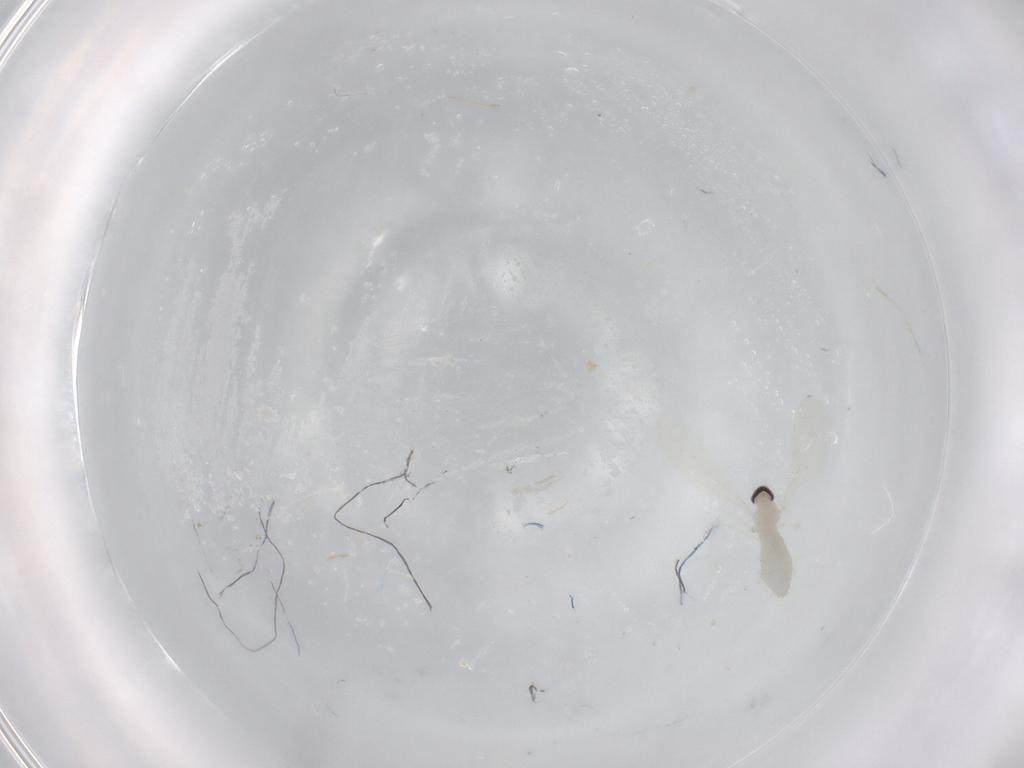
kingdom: Animalia
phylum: Arthropoda
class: Insecta
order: Diptera
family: Cecidomyiidae
